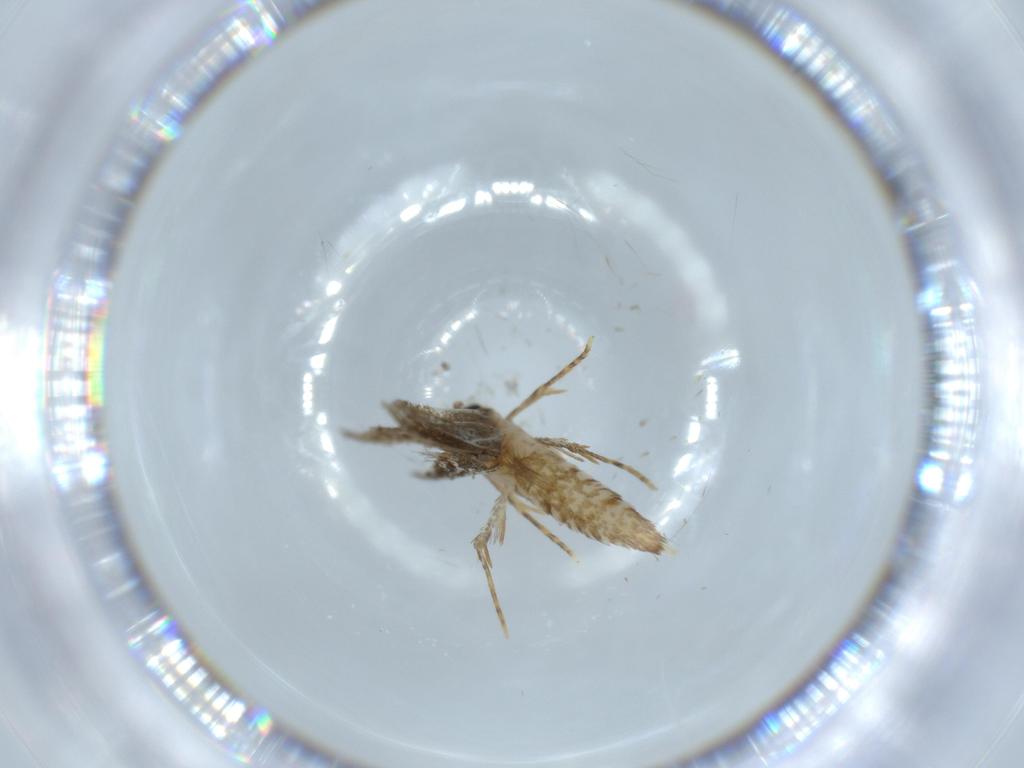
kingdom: Animalia
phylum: Arthropoda
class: Insecta
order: Lepidoptera
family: Tineidae
